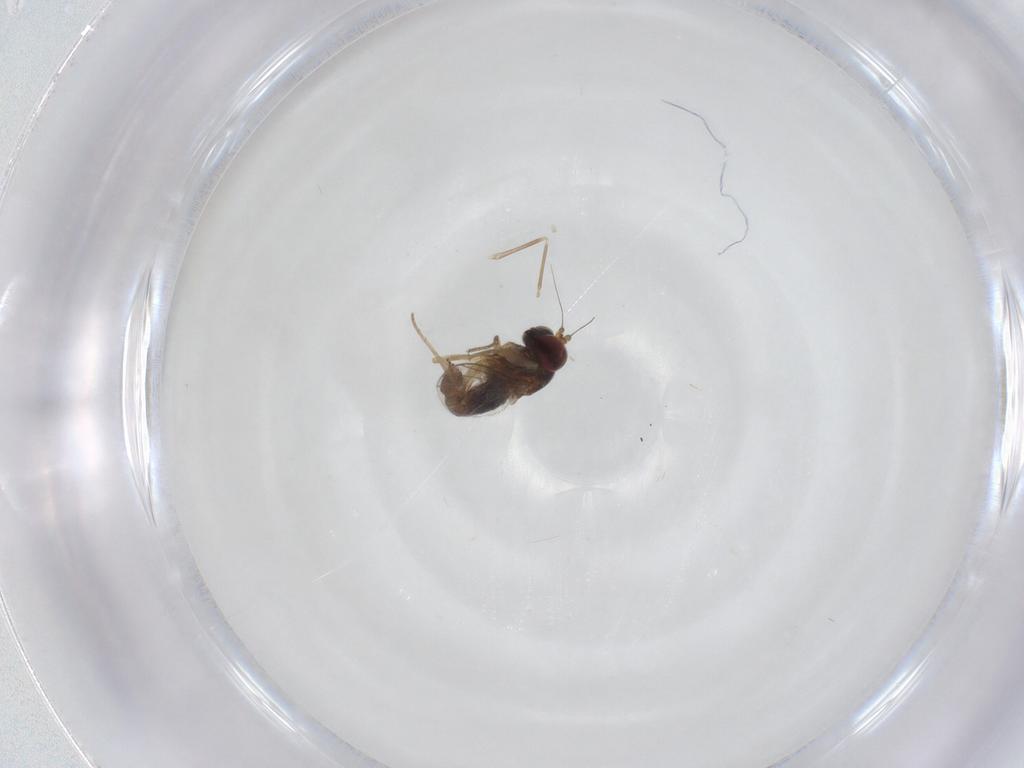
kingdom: Animalia
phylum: Arthropoda
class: Insecta
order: Diptera
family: Dolichopodidae
